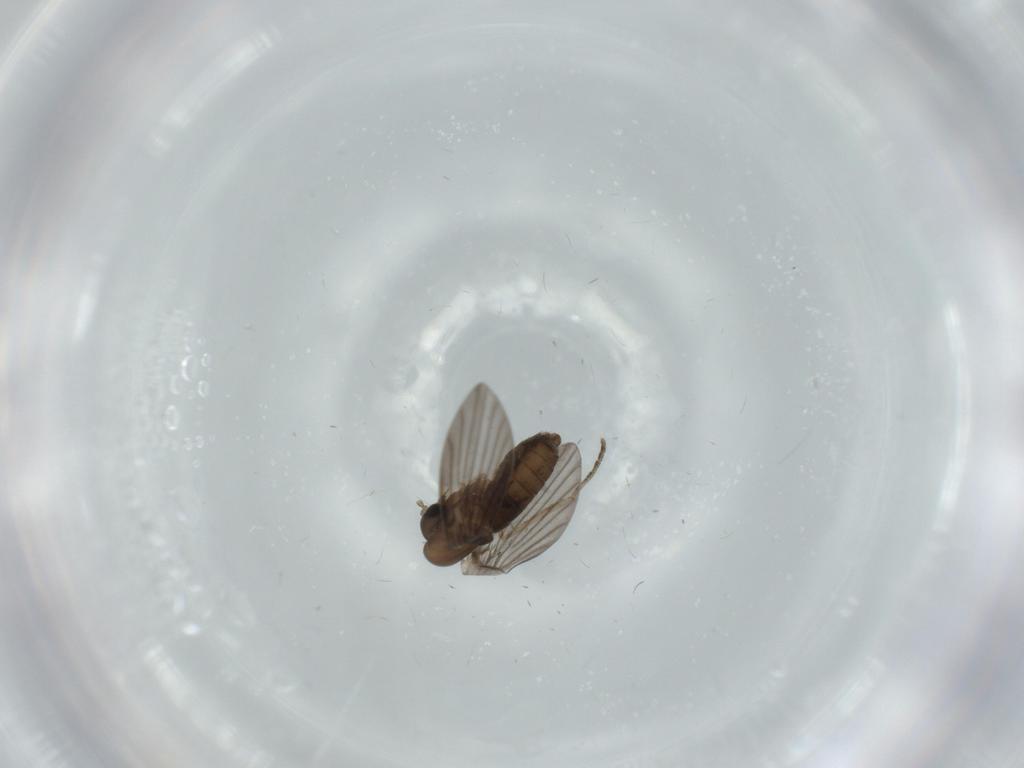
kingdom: Animalia
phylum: Arthropoda
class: Insecta
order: Diptera
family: Psychodidae
